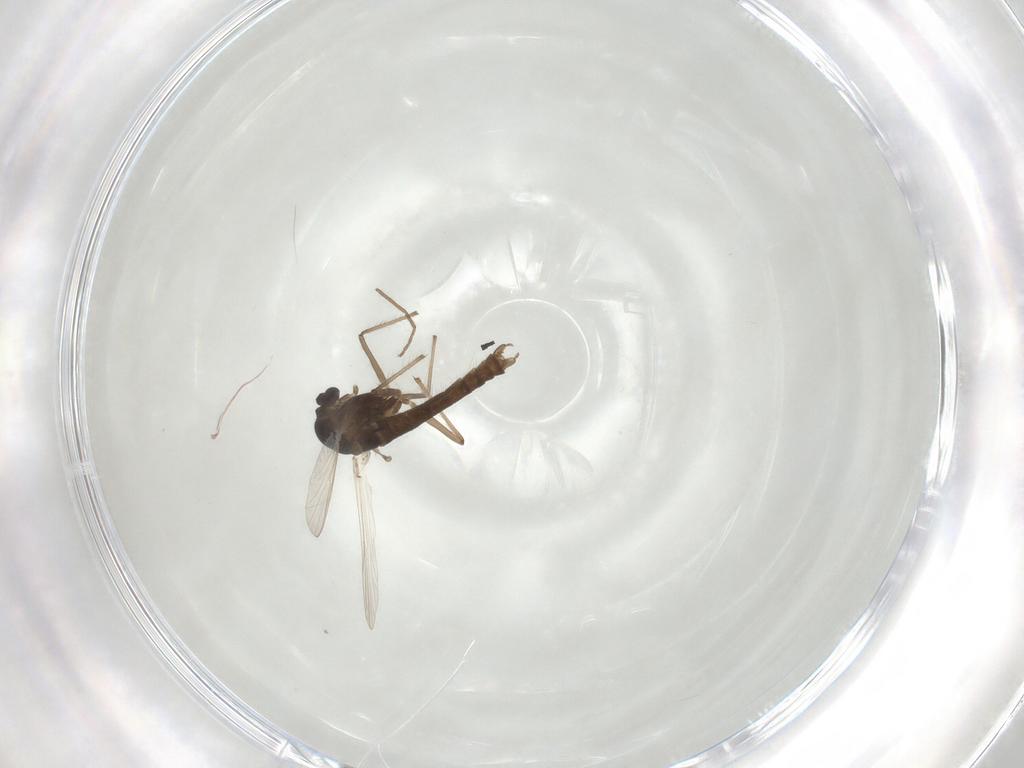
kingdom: Animalia
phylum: Arthropoda
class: Insecta
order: Diptera
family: Chironomidae
